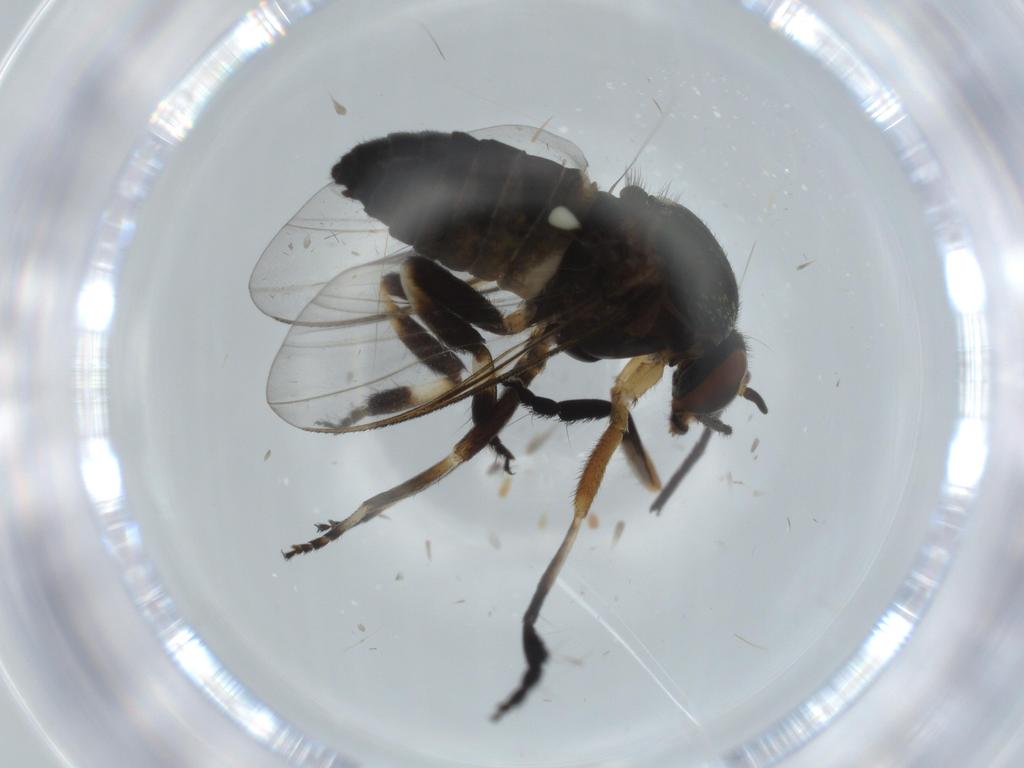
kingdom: Animalia
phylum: Arthropoda
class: Insecta
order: Diptera
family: Phoridae
